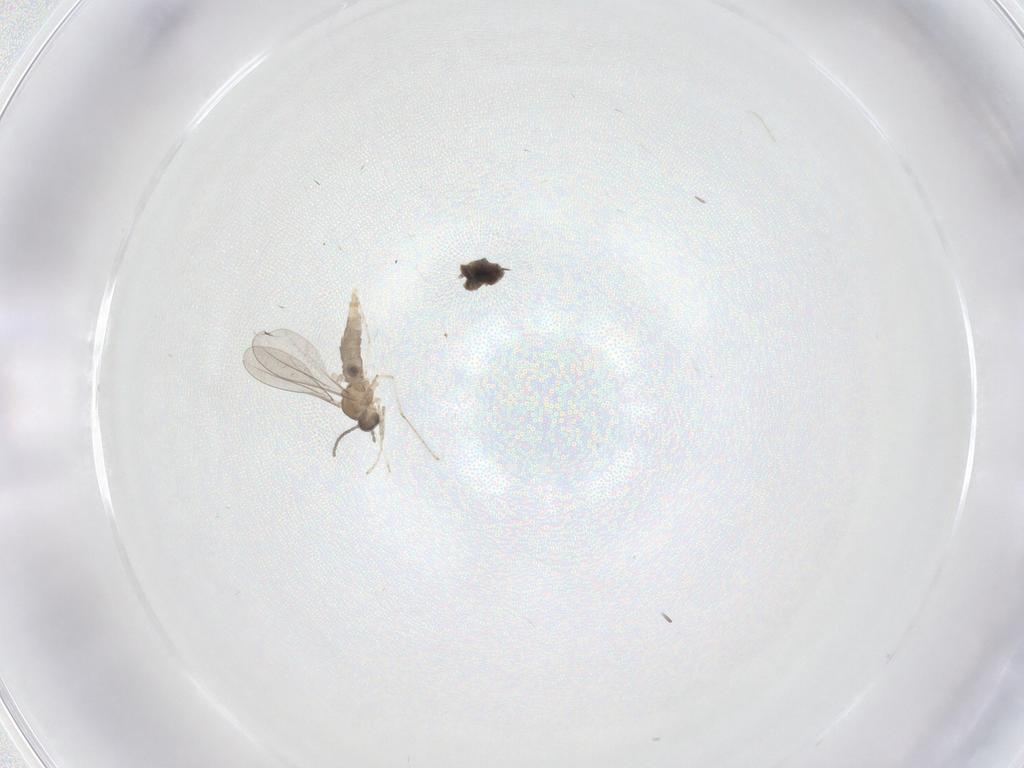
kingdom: Animalia
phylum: Arthropoda
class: Insecta
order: Diptera
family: Cecidomyiidae
